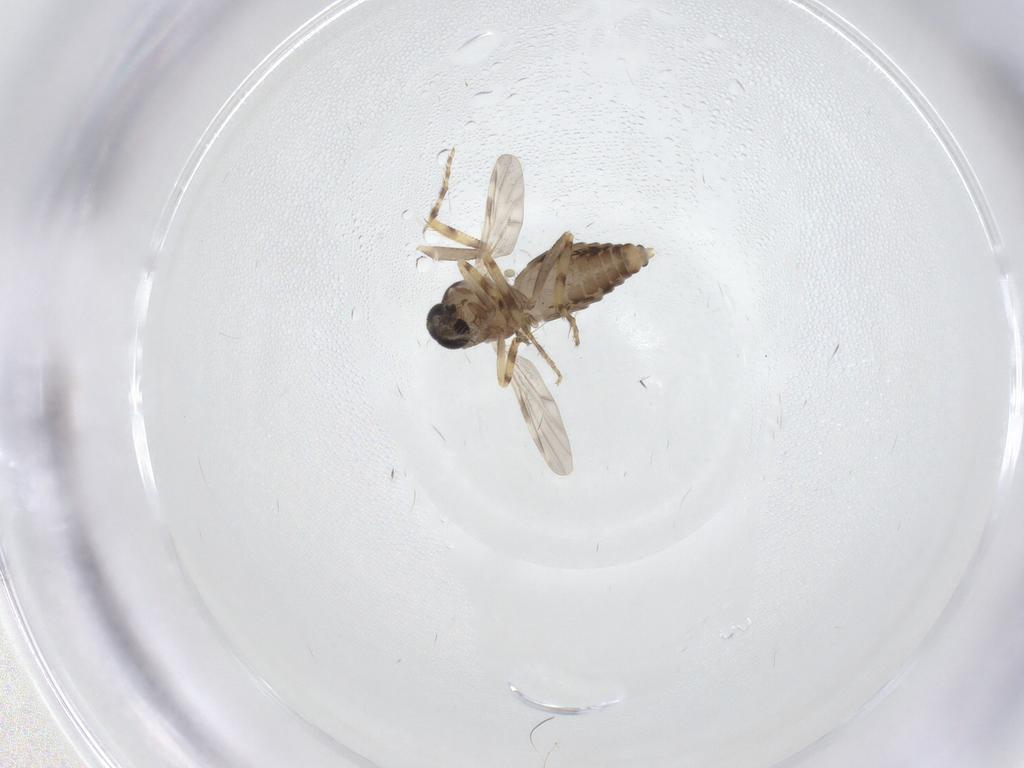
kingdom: Animalia
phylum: Arthropoda
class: Insecta
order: Diptera
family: Ceratopogonidae
